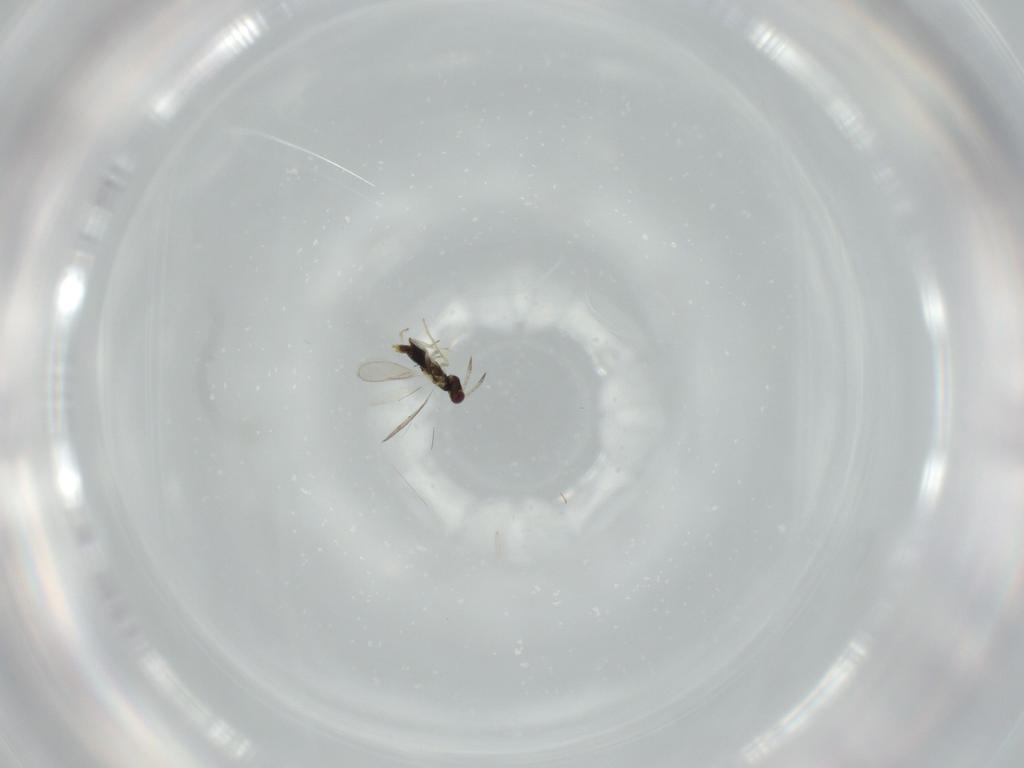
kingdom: Animalia
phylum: Arthropoda
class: Insecta
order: Hymenoptera
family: Aphelinidae
